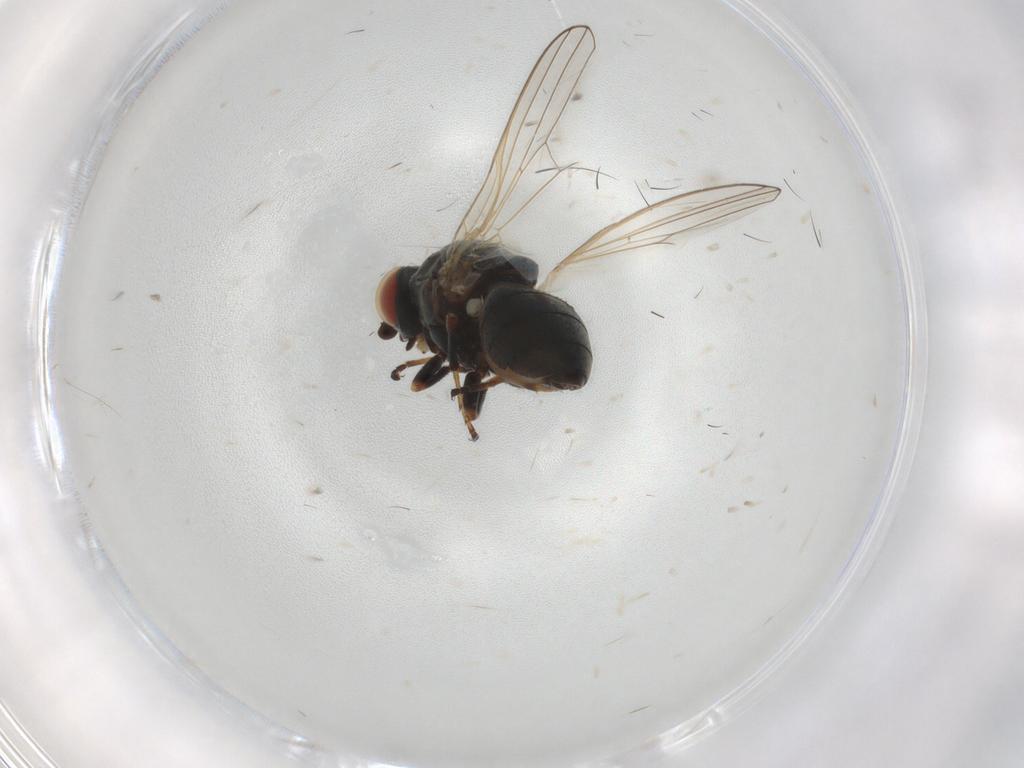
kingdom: Animalia
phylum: Arthropoda
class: Insecta
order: Diptera
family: Chamaemyiidae
